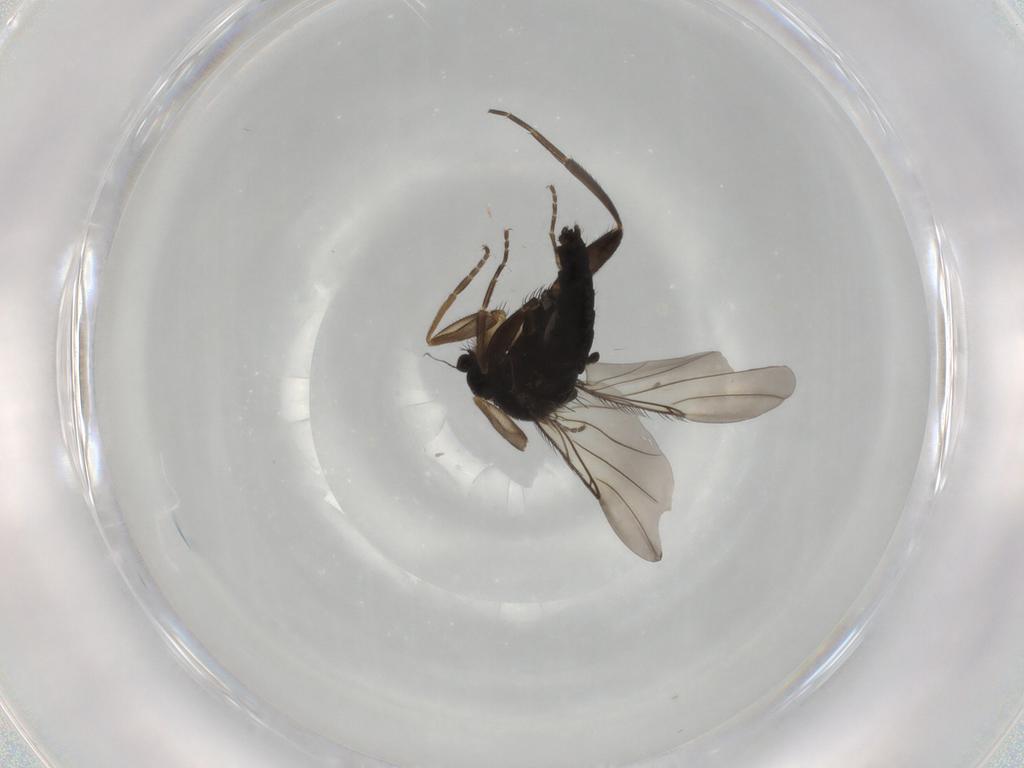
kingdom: Animalia
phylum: Arthropoda
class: Insecta
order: Diptera
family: Phoridae
